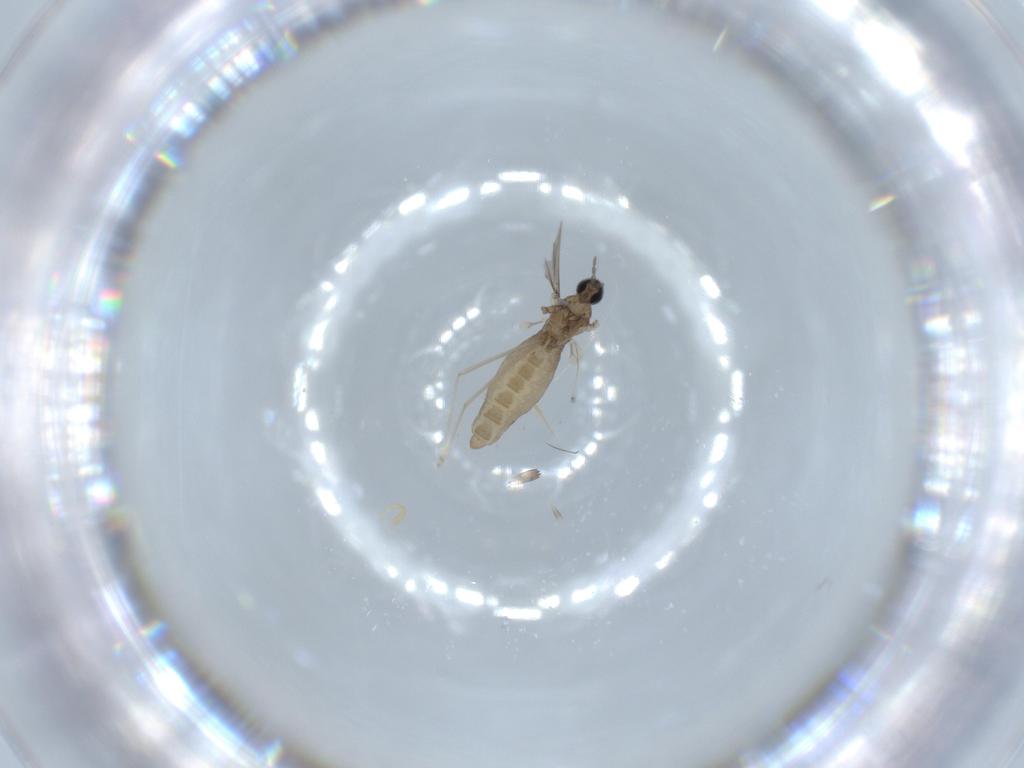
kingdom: Animalia
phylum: Arthropoda
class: Insecta
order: Diptera
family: Cecidomyiidae
